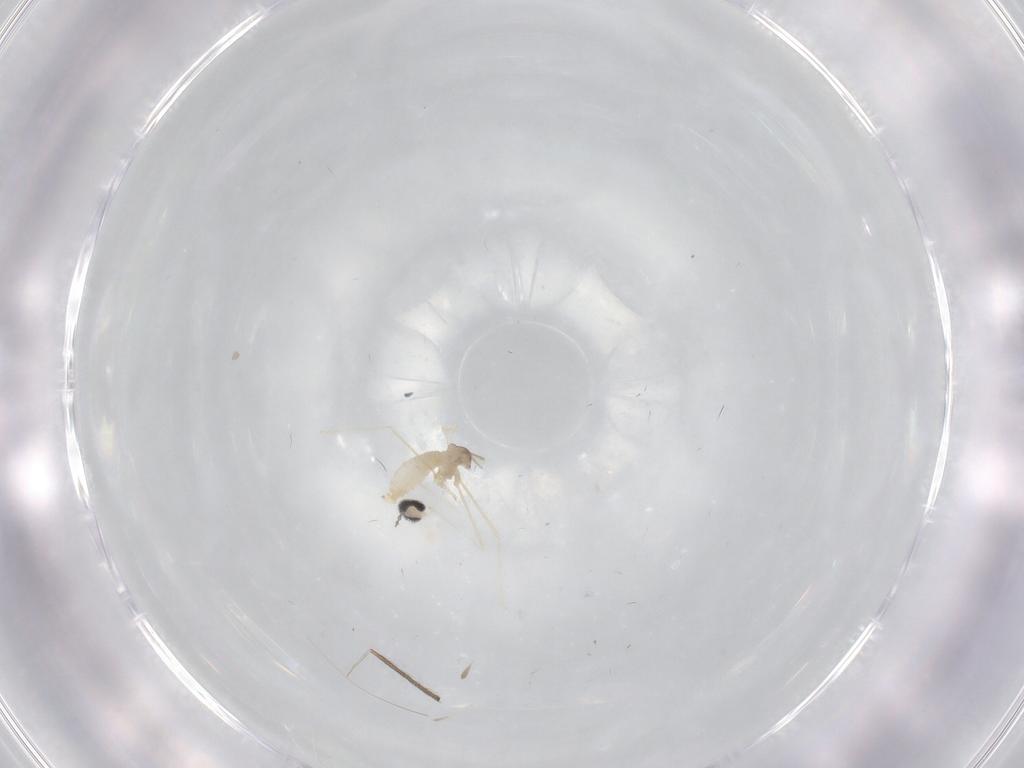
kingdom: Animalia
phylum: Arthropoda
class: Insecta
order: Diptera
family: Cecidomyiidae
